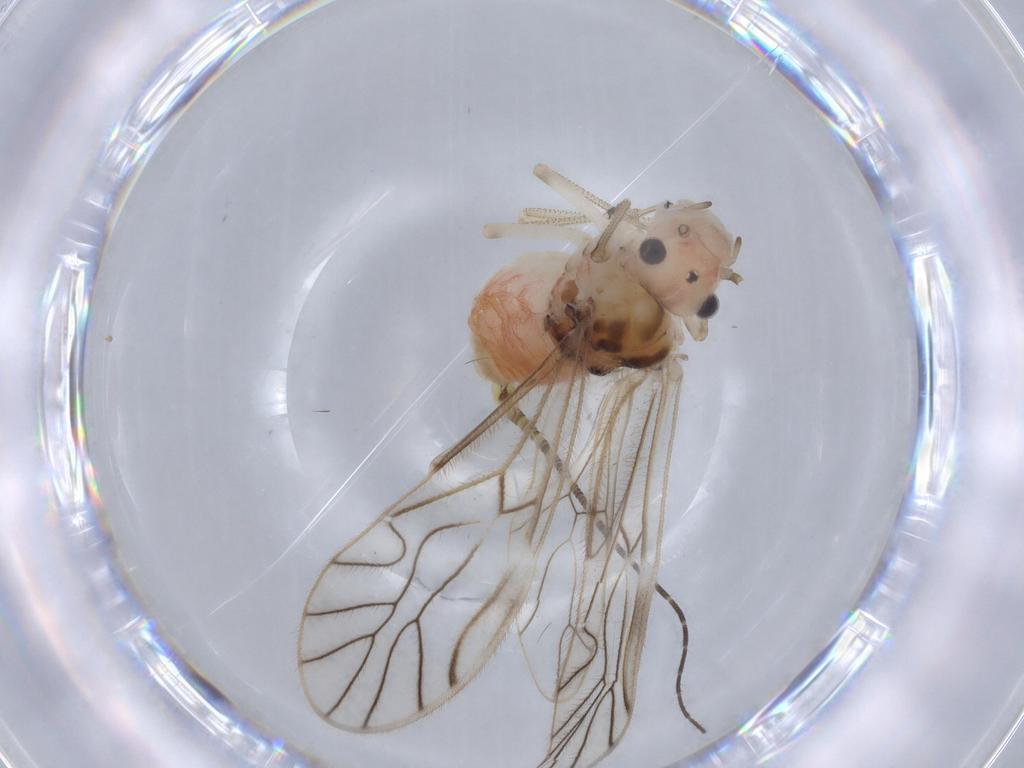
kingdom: Animalia
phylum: Arthropoda
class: Insecta
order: Psocodea
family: Amphipsocidae
